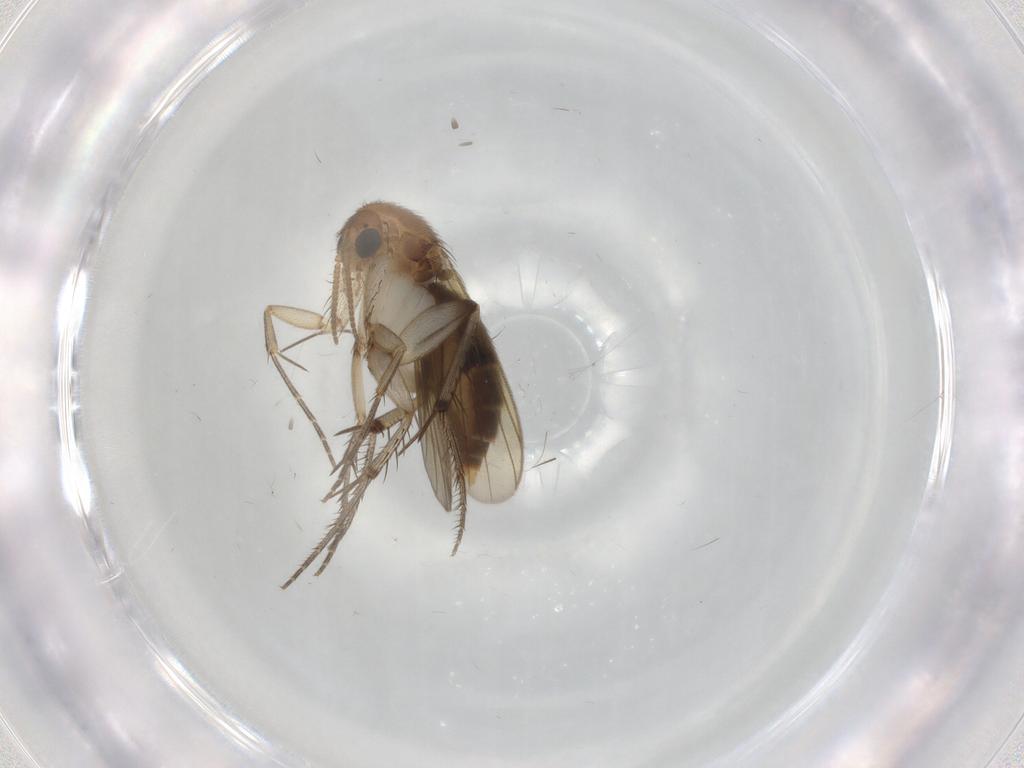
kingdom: Animalia
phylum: Arthropoda
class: Insecta
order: Diptera
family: Mycetophilidae
